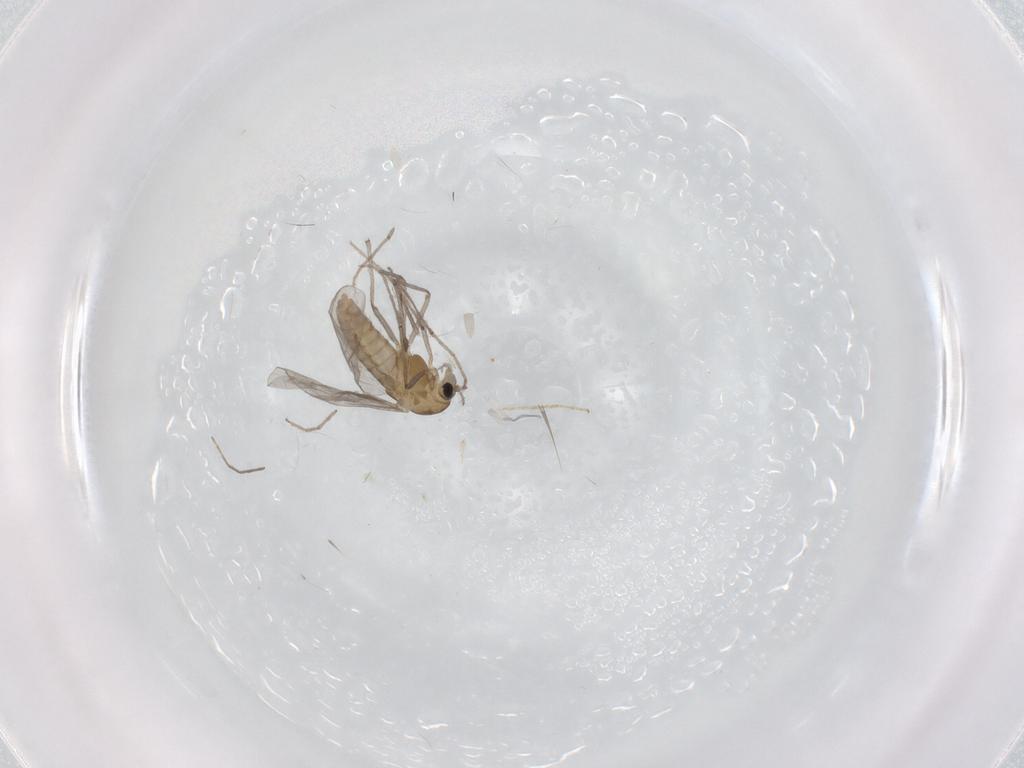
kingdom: Animalia
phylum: Arthropoda
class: Insecta
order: Diptera
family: Chironomidae
